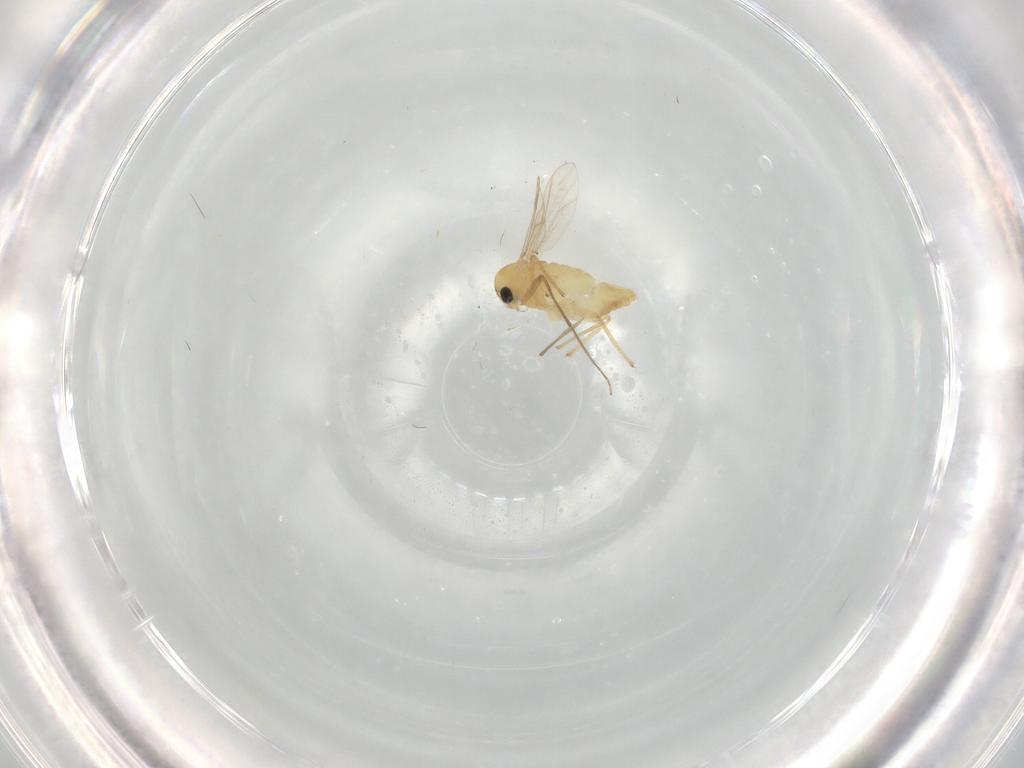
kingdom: Animalia
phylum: Arthropoda
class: Insecta
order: Diptera
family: Chironomidae
